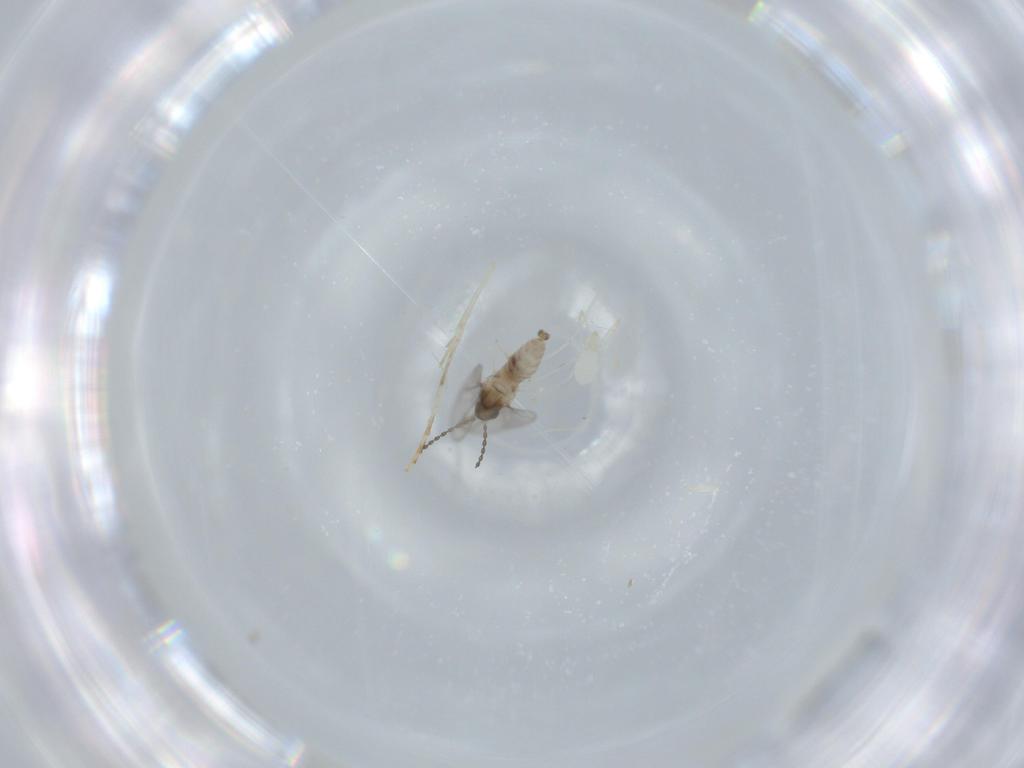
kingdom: Animalia
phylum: Arthropoda
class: Insecta
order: Diptera
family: Cecidomyiidae
